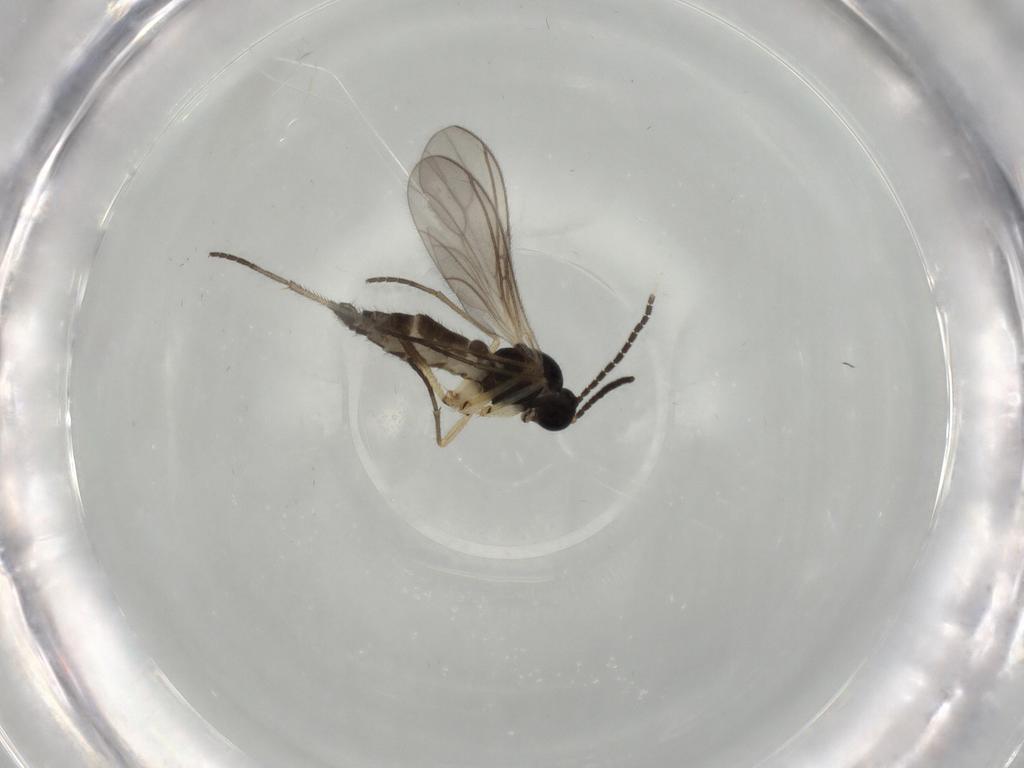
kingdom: Animalia
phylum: Arthropoda
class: Insecta
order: Diptera
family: Sciaridae
